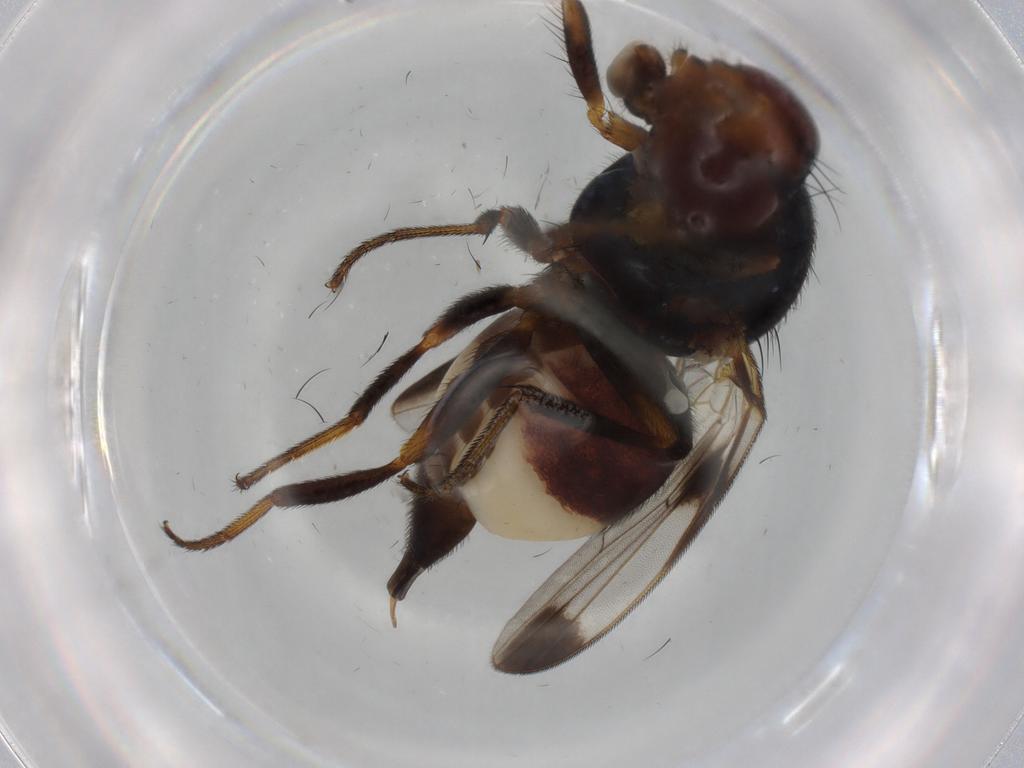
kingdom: Animalia
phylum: Arthropoda
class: Insecta
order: Diptera
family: Ulidiidae
